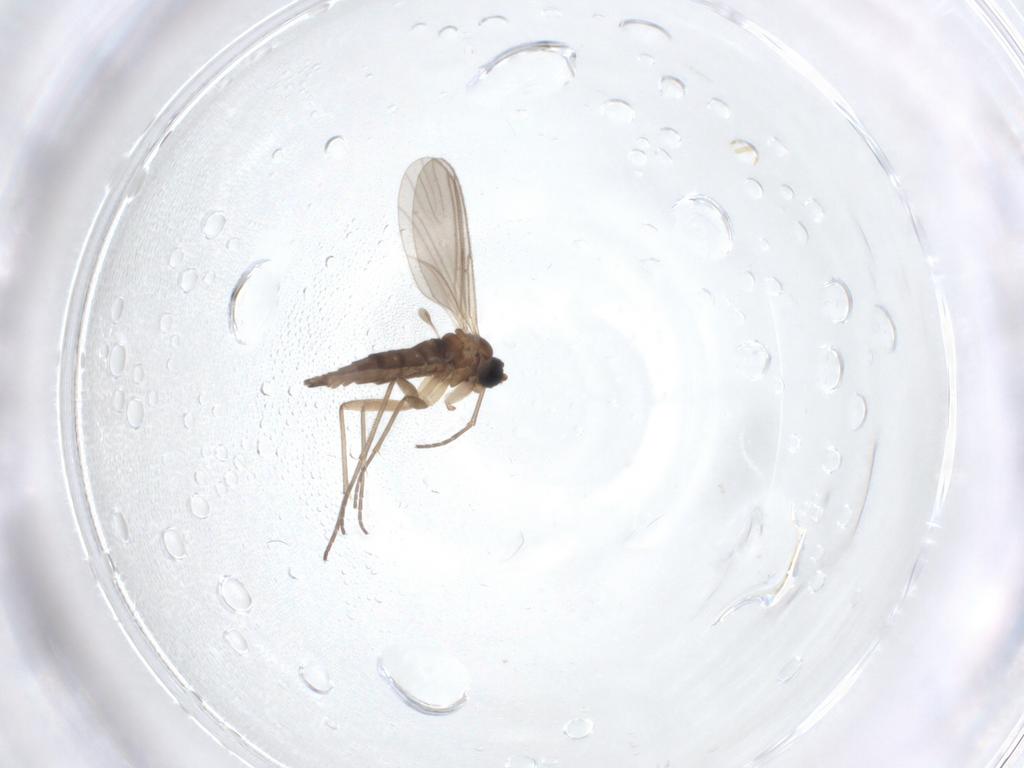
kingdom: Animalia
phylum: Arthropoda
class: Insecta
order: Diptera
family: Sciaridae
